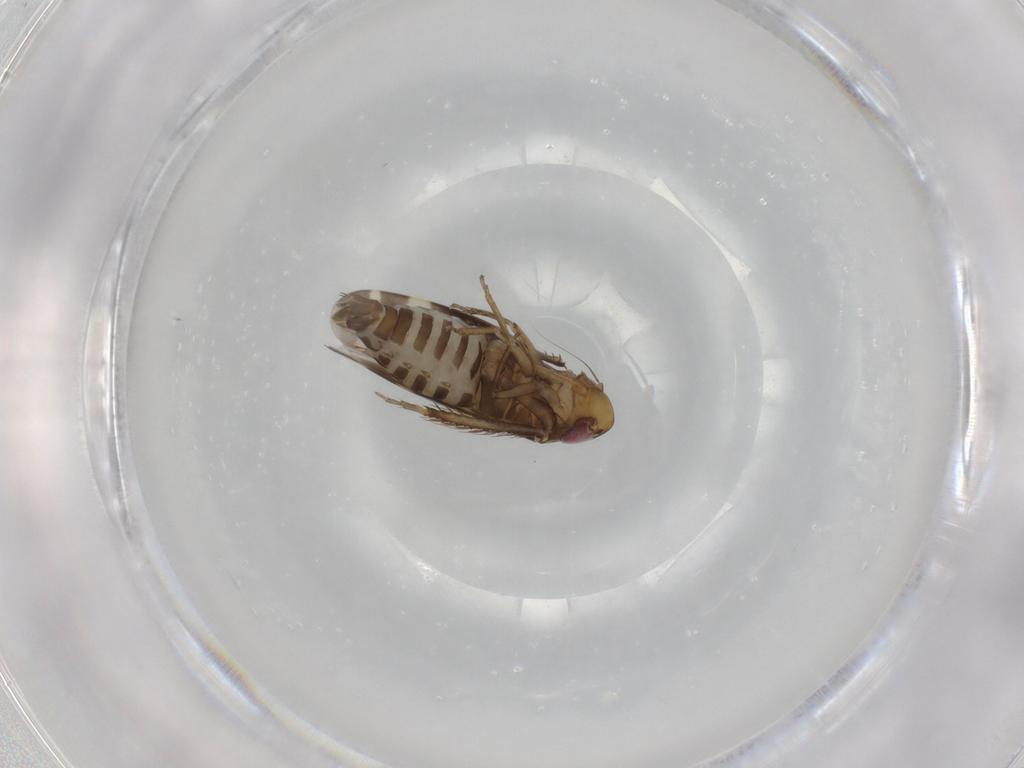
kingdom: Animalia
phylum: Arthropoda
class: Insecta
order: Hemiptera
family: Cicadellidae
